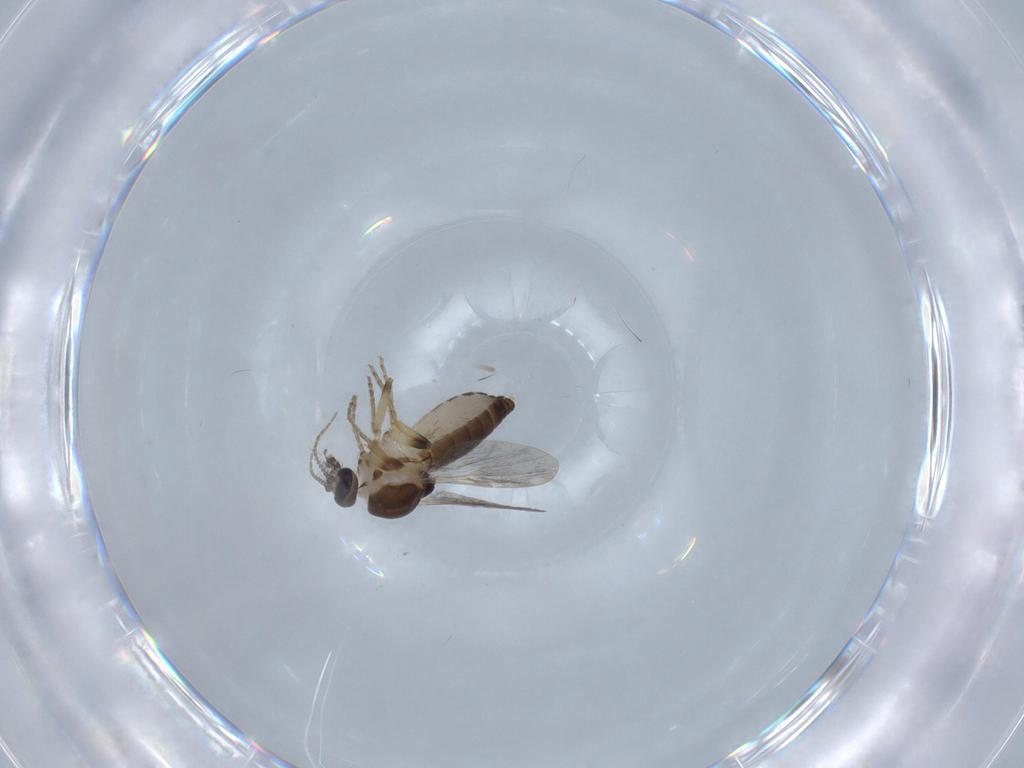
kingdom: Animalia
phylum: Arthropoda
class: Insecta
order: Diptera
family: Ceratopogonidae
